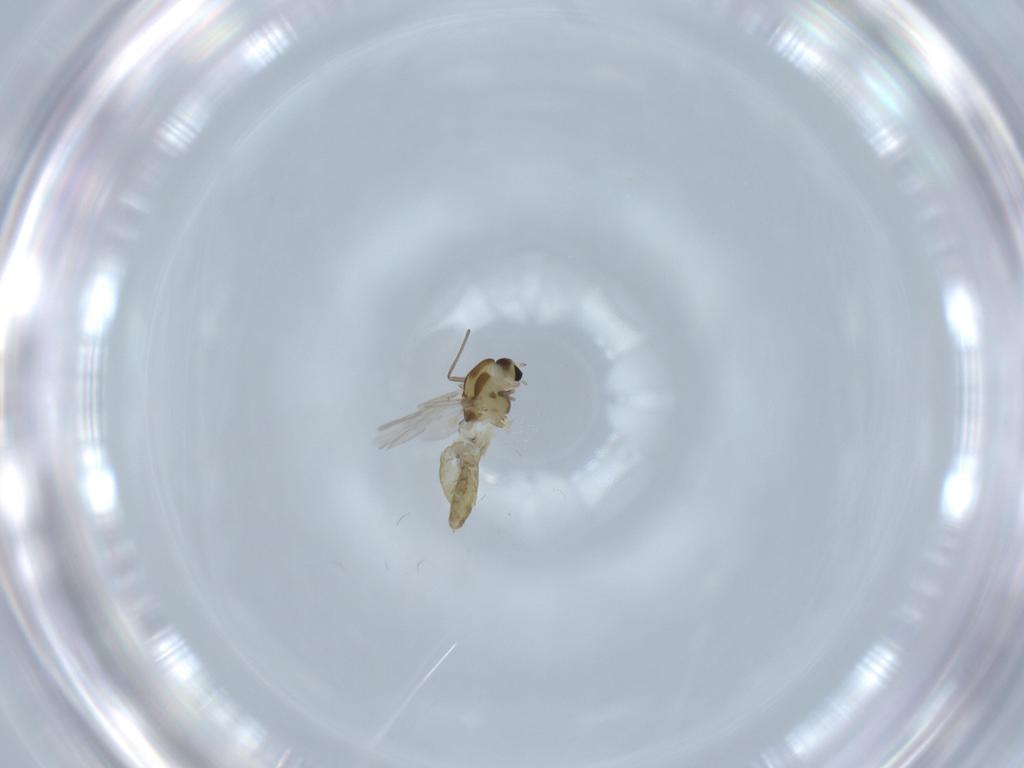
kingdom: Animalia
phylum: Arthropoda
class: Insecta
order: Diptera
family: Chironomidae
